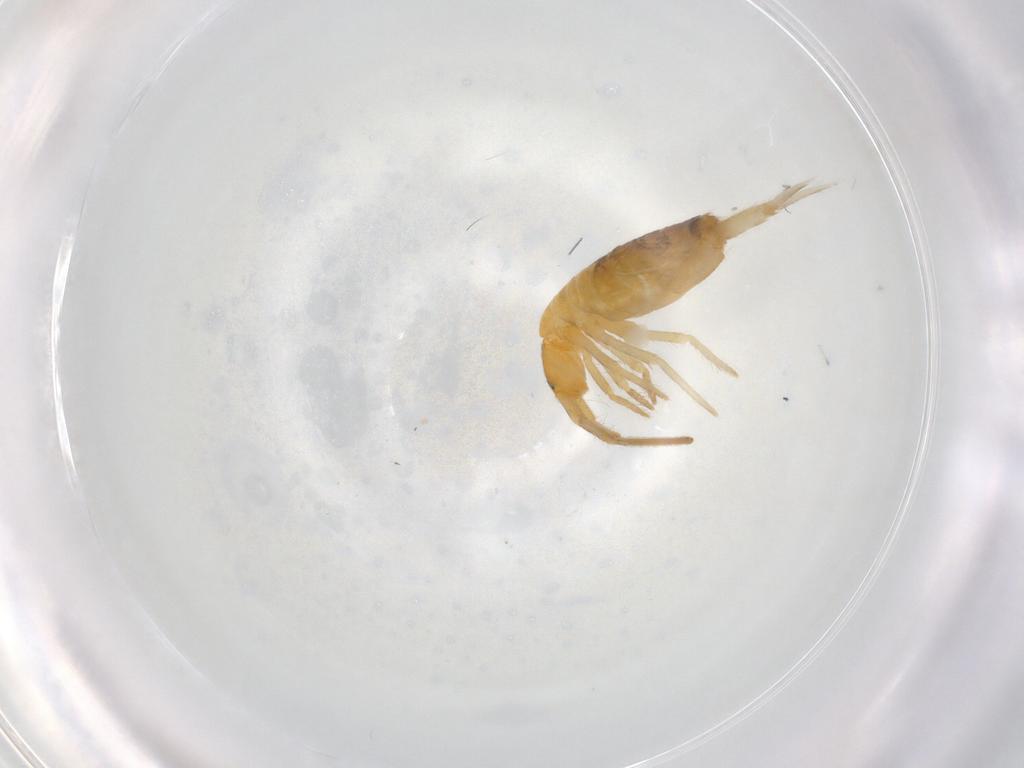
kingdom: Animalia
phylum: Arthropoda
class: Collembola
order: Entomobryomorpha
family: Entomobryidae
